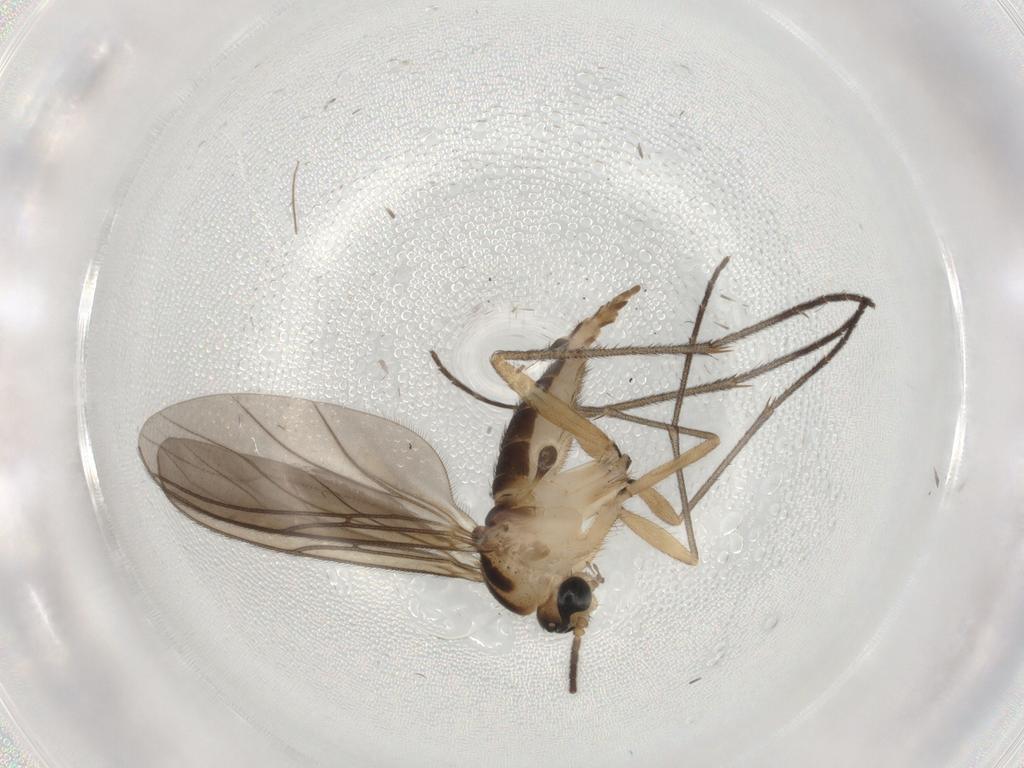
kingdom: Animalia
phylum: Arthropoda
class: Insecta
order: Diptera
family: Sciaridae
